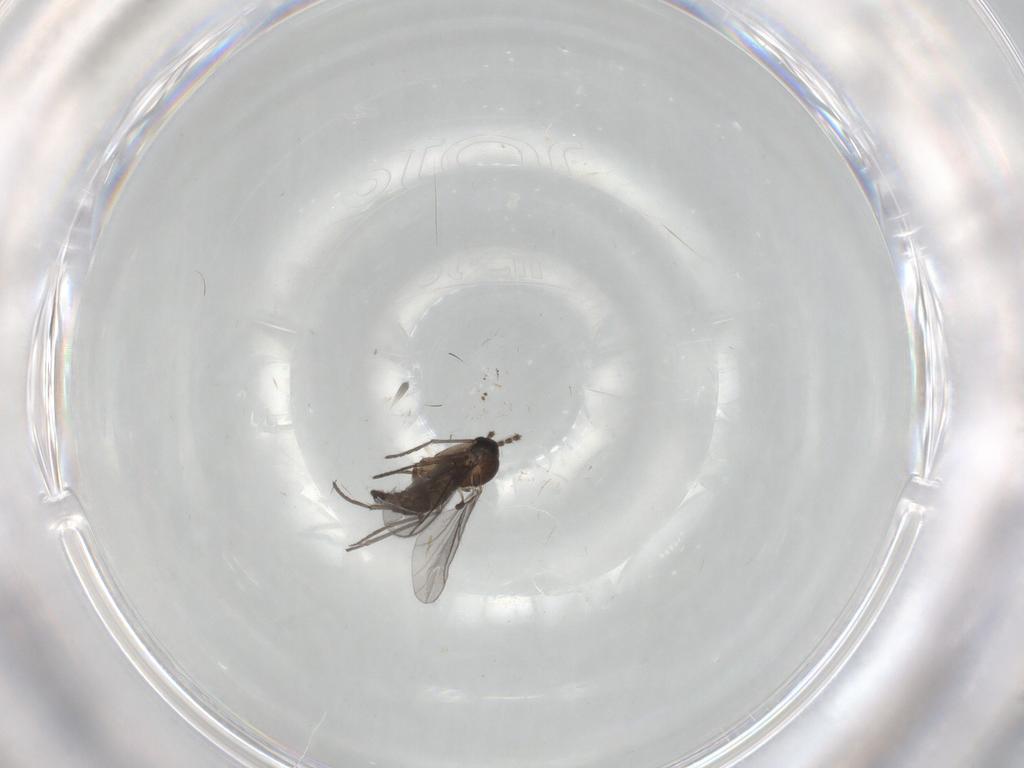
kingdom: Animalia
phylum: Arthropoda
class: Insecta
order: Diptera
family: Sciaridae
